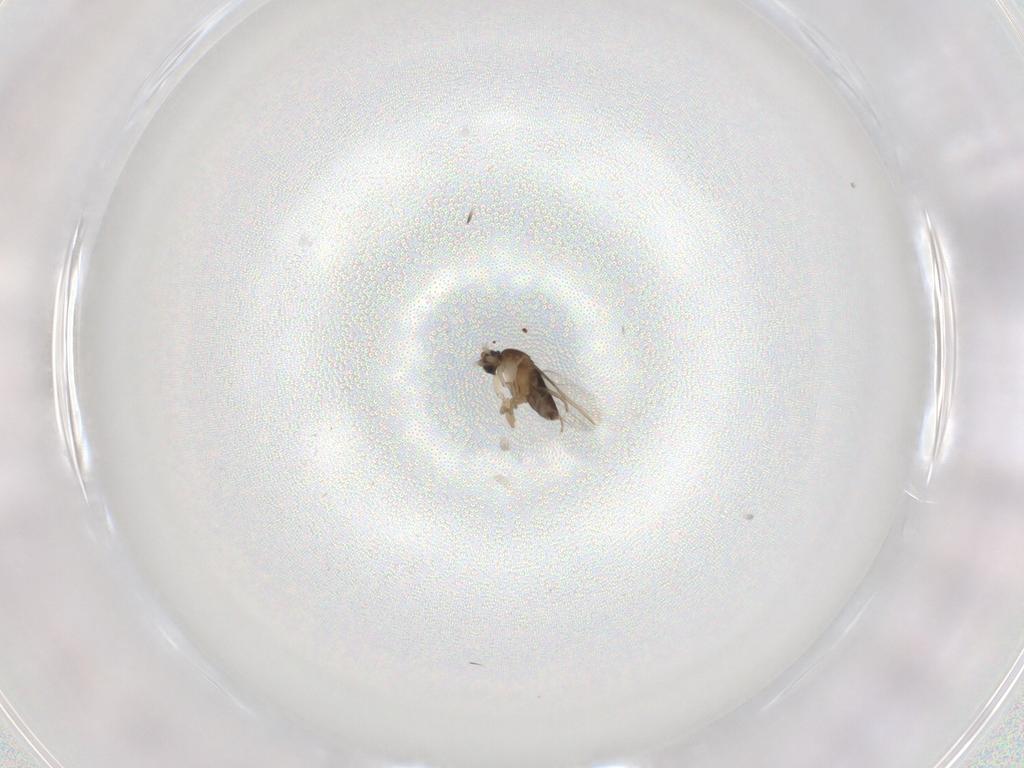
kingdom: Animalia
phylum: Arthropoda
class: Insecta
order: Diptera
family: Phoridae
